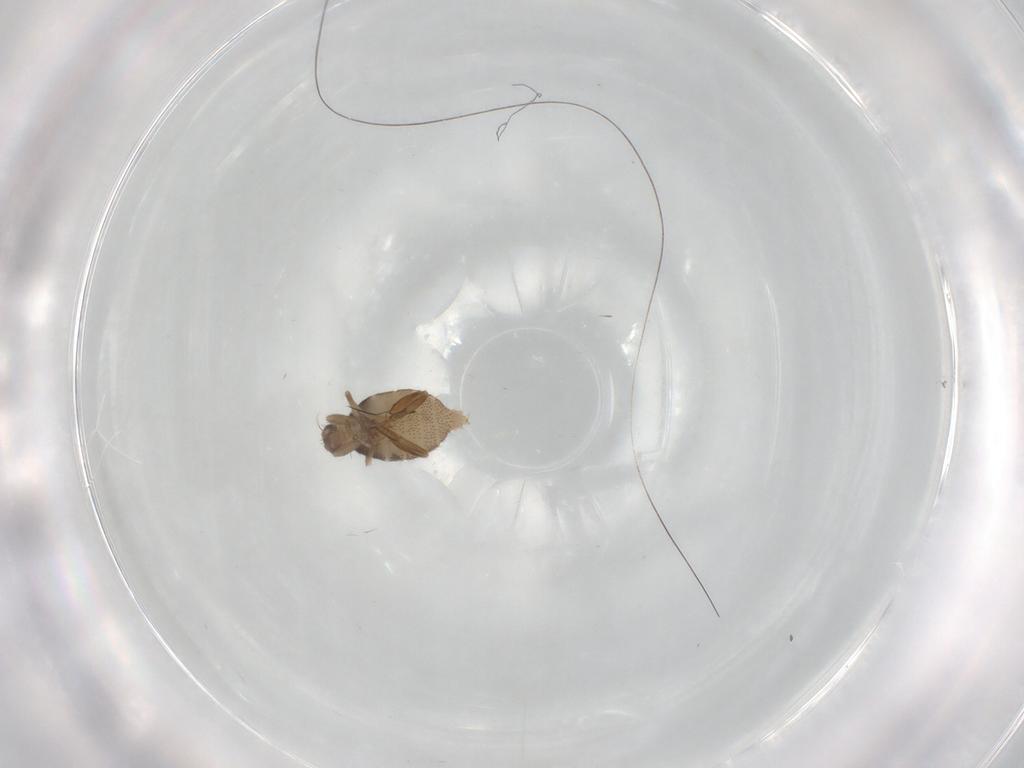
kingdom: Animalia
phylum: Arthropoda
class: Insecta
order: Diptera
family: Phoridae
